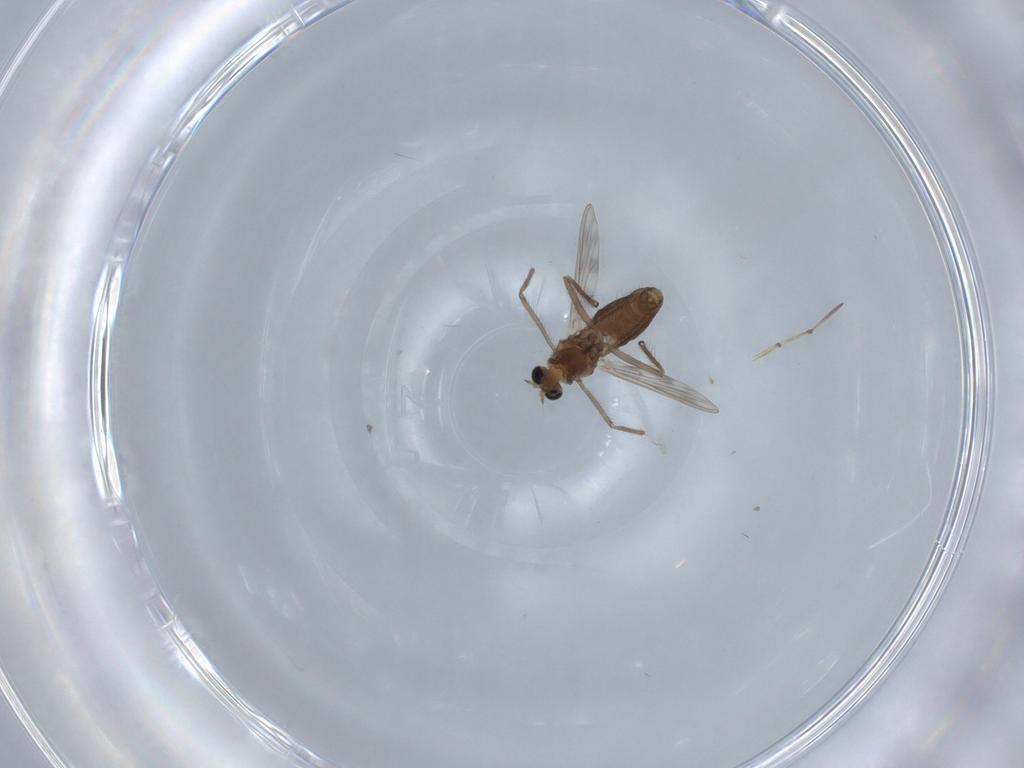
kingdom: Animalia
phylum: Arthropoda
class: Insecta
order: Diptera
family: Chironomidae
